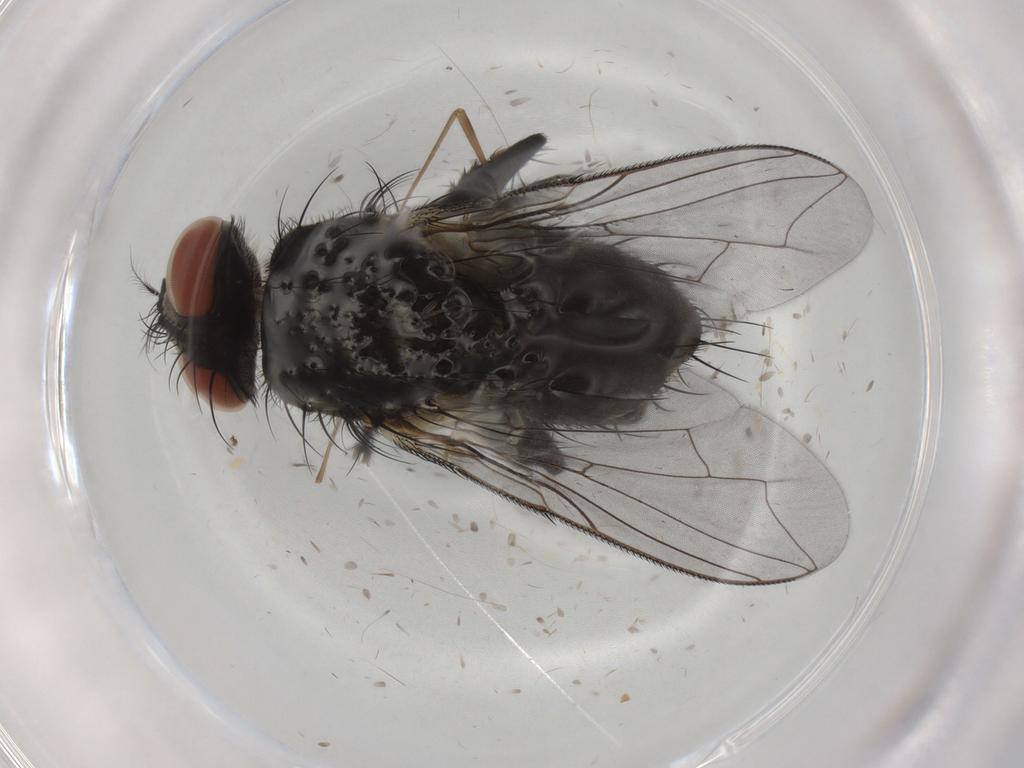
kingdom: Animalia
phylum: Arthropoda
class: Insecta
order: Diptera
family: Limoniidae
